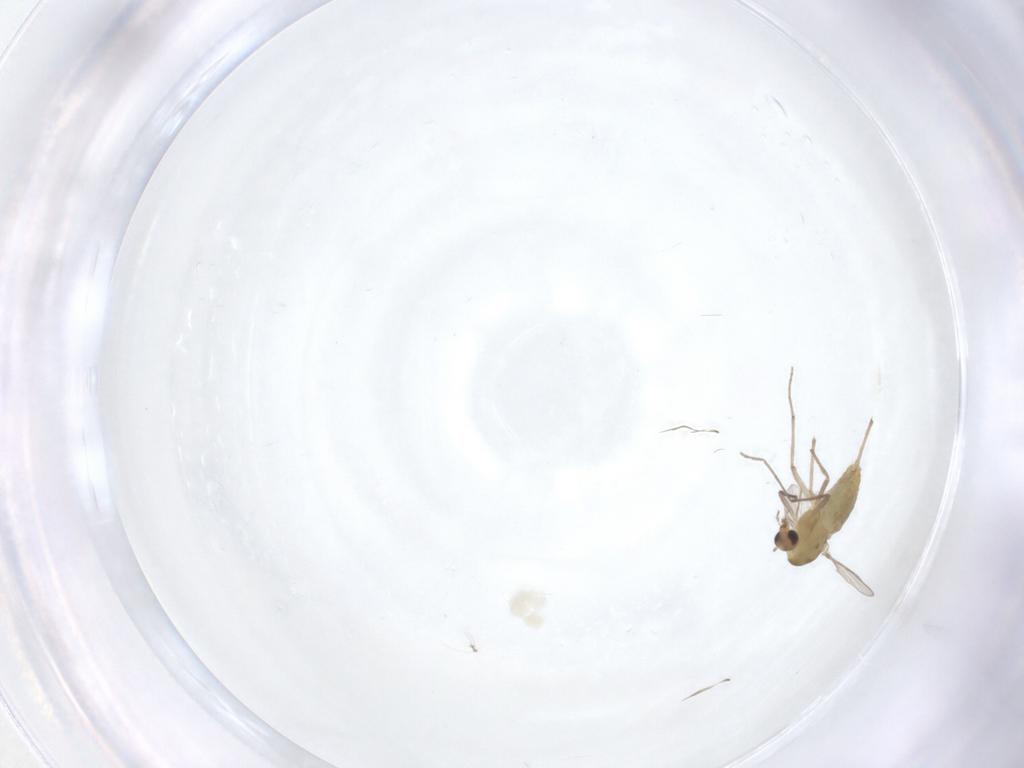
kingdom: Animalia
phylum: Arthropoda
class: Insecta
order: Diptera
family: Chironomidae
